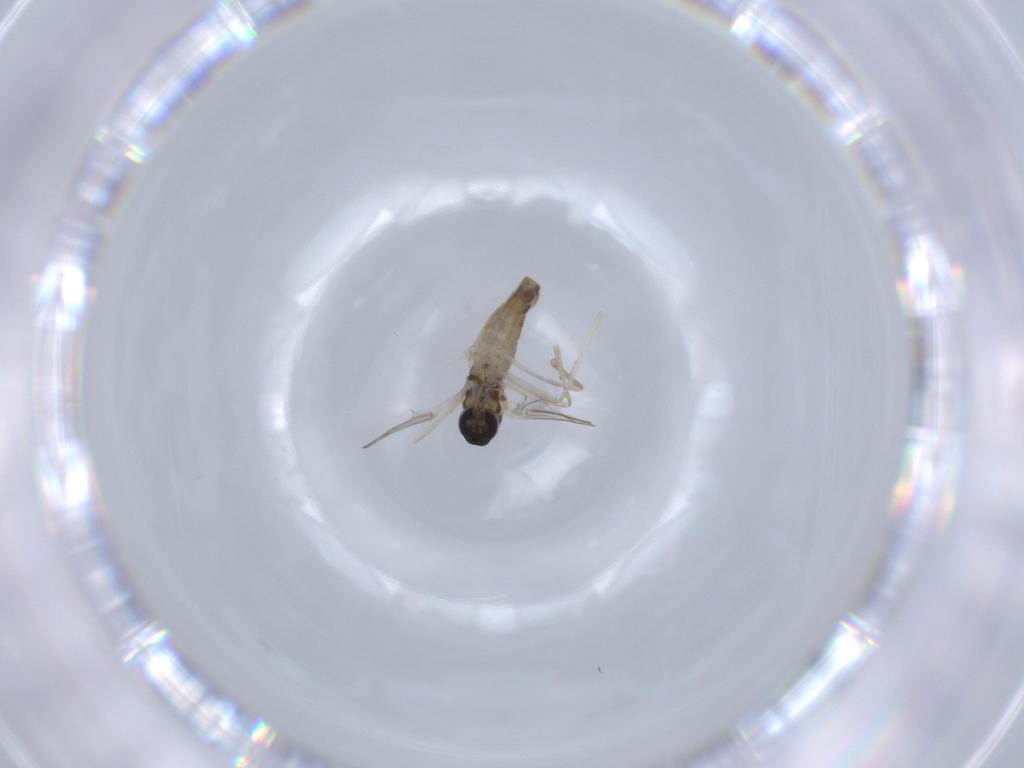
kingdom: Animalia
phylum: Arthropoda
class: Insecta
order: Diptera
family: Cecidomyiidae
